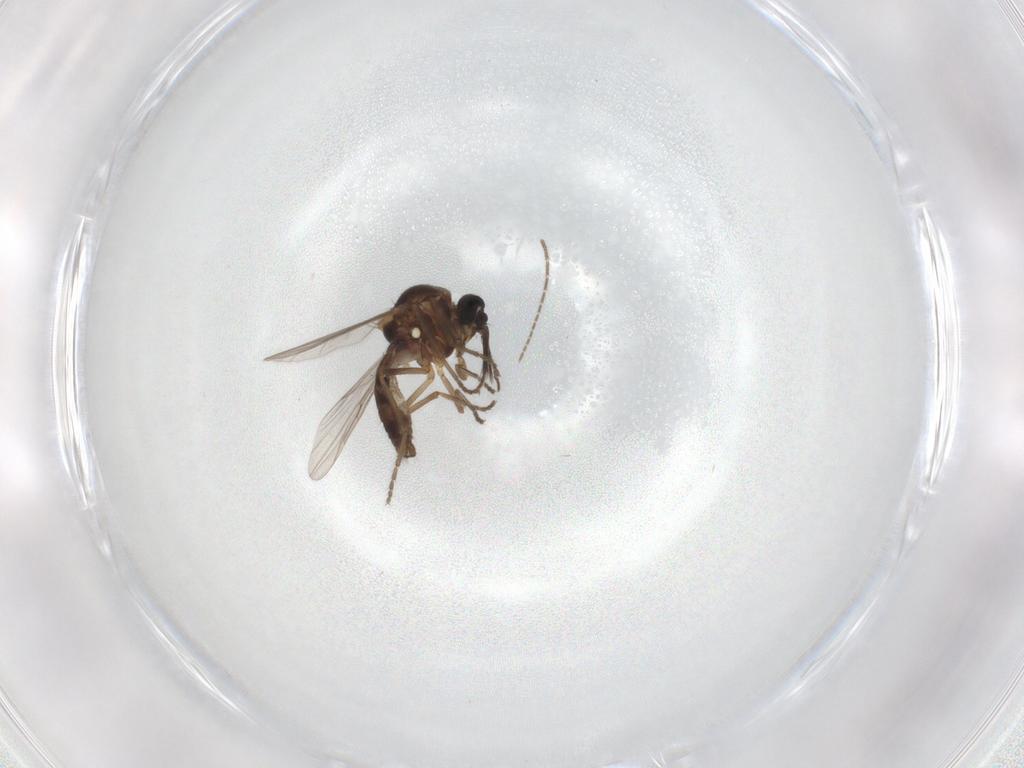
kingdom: Animalia
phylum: Arthropoda
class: Insecta
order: Diptera
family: Ceratopogonidae
